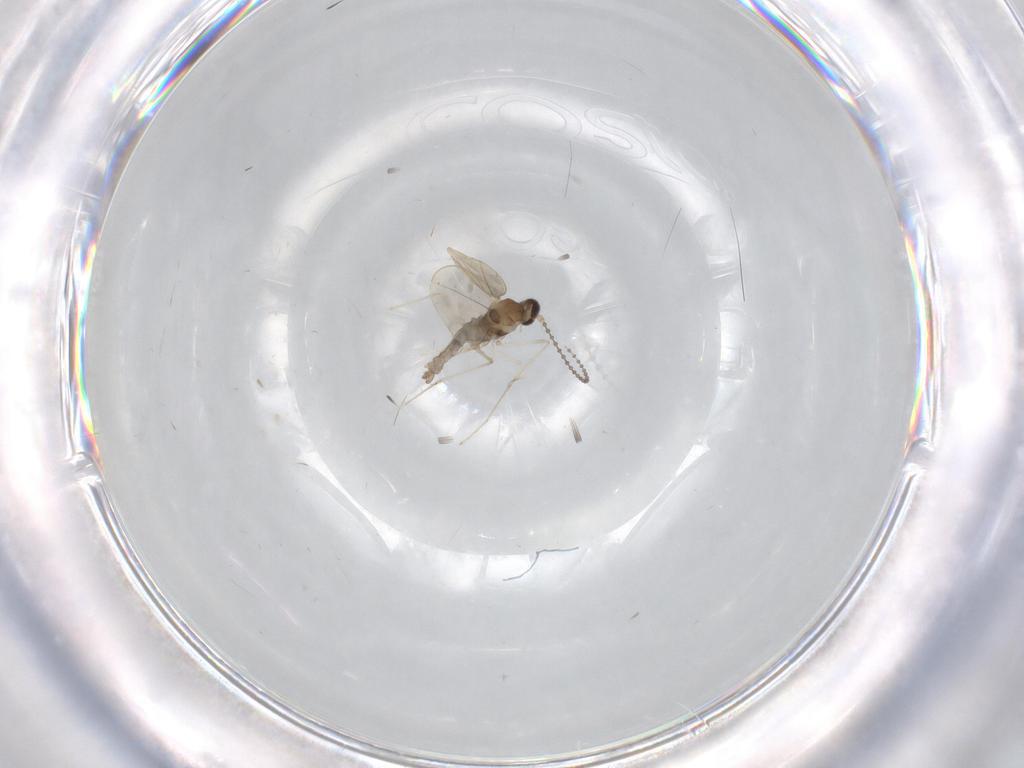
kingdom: Animalia
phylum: Arthropoda
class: Insecta
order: Diptera
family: Cecidomyiidae
